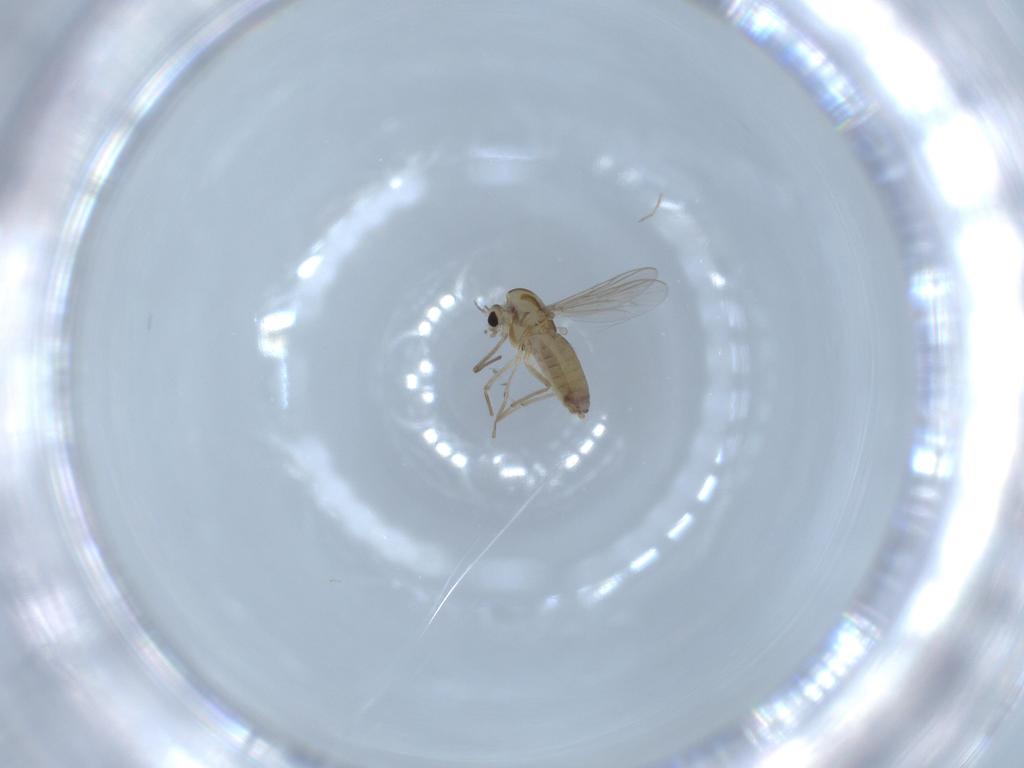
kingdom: Animalia
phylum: Arthropoda
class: Insecta
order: Diptera
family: Chironomidae
